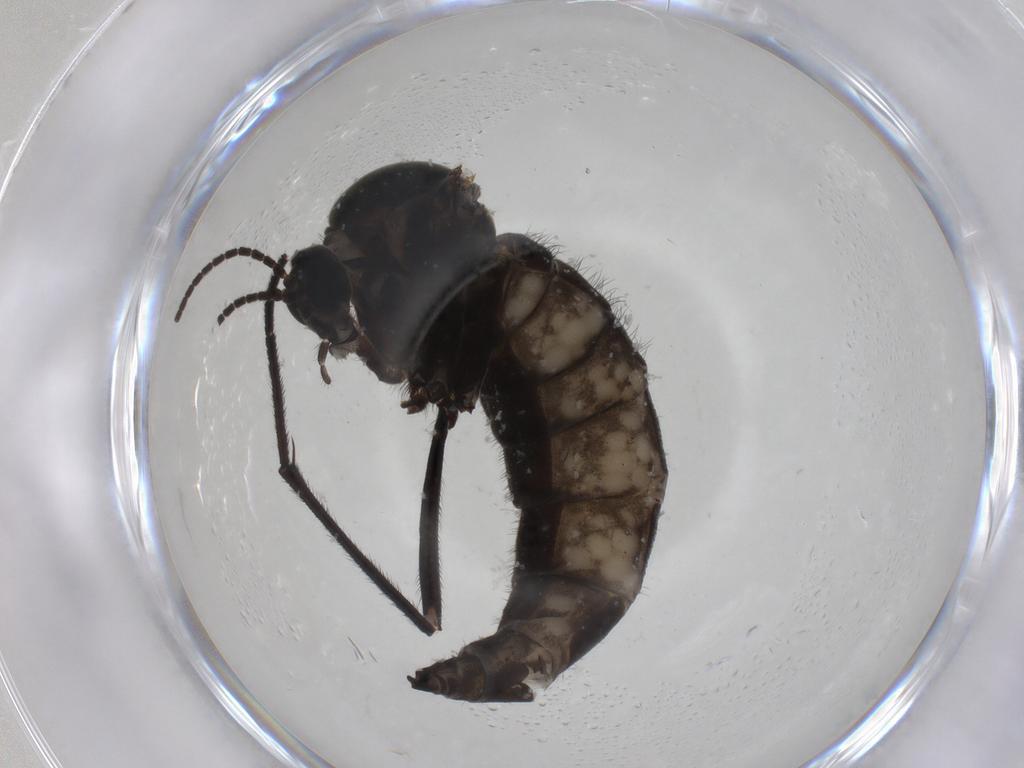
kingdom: Animalia
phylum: Arthropoda
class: Insecta
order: Diptera
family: Sciaridae
